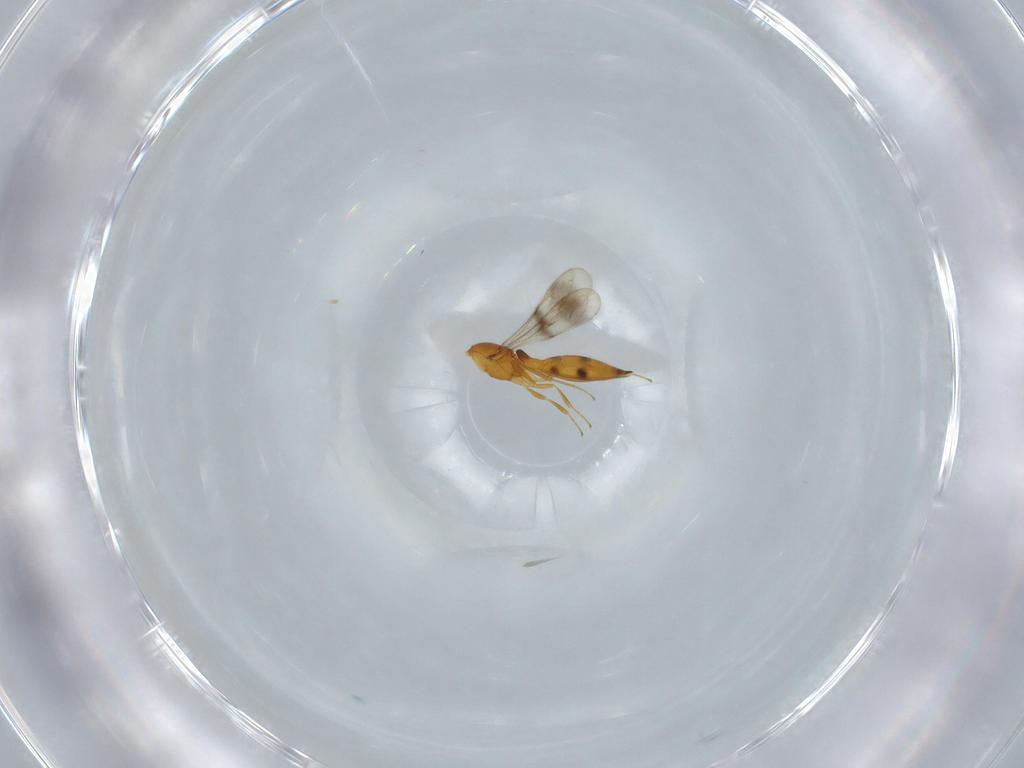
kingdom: Animalia
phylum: Arthropoda
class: Insecta
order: Hymenoptera
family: Scelionidae
